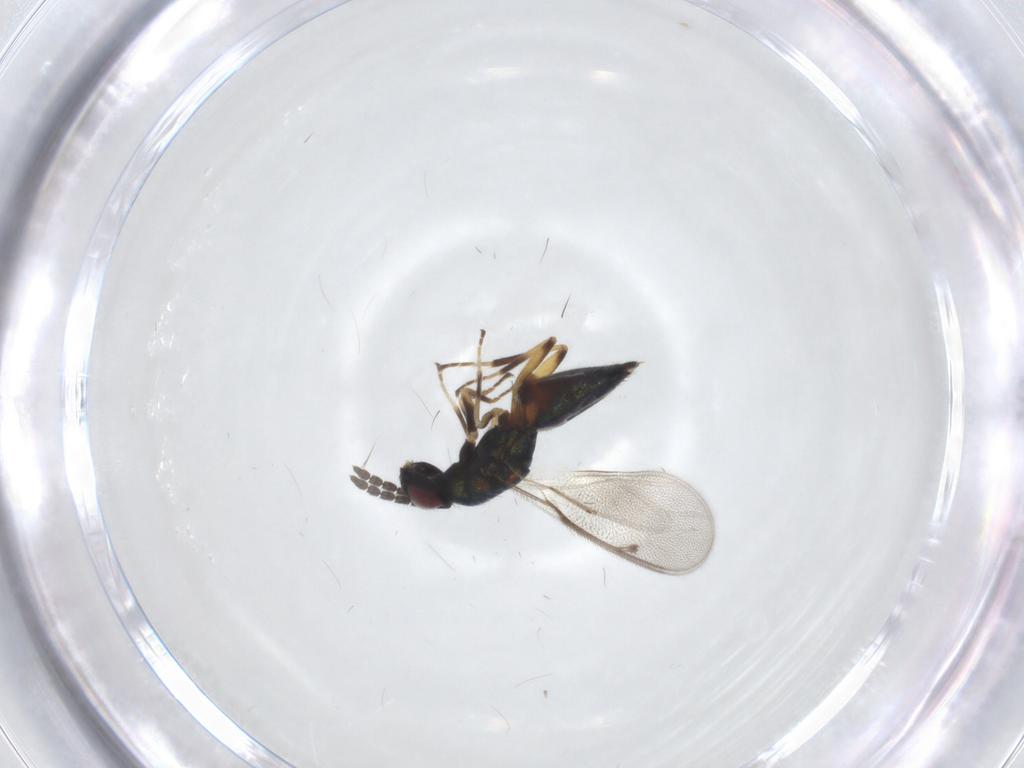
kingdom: Animalia
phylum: Arthropoda
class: Insecta
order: Hymenoptera
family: Eulophidae
